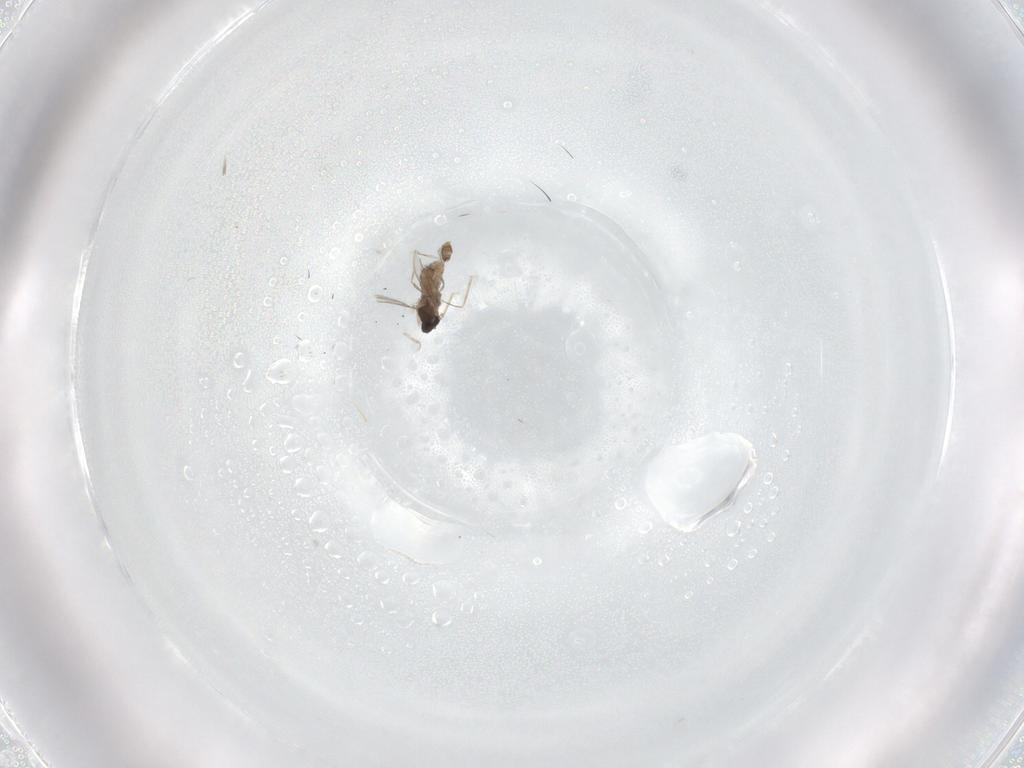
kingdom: Animalia
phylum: Arthropoda
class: Insecta
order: Diptera
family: Cecidomyiidae
